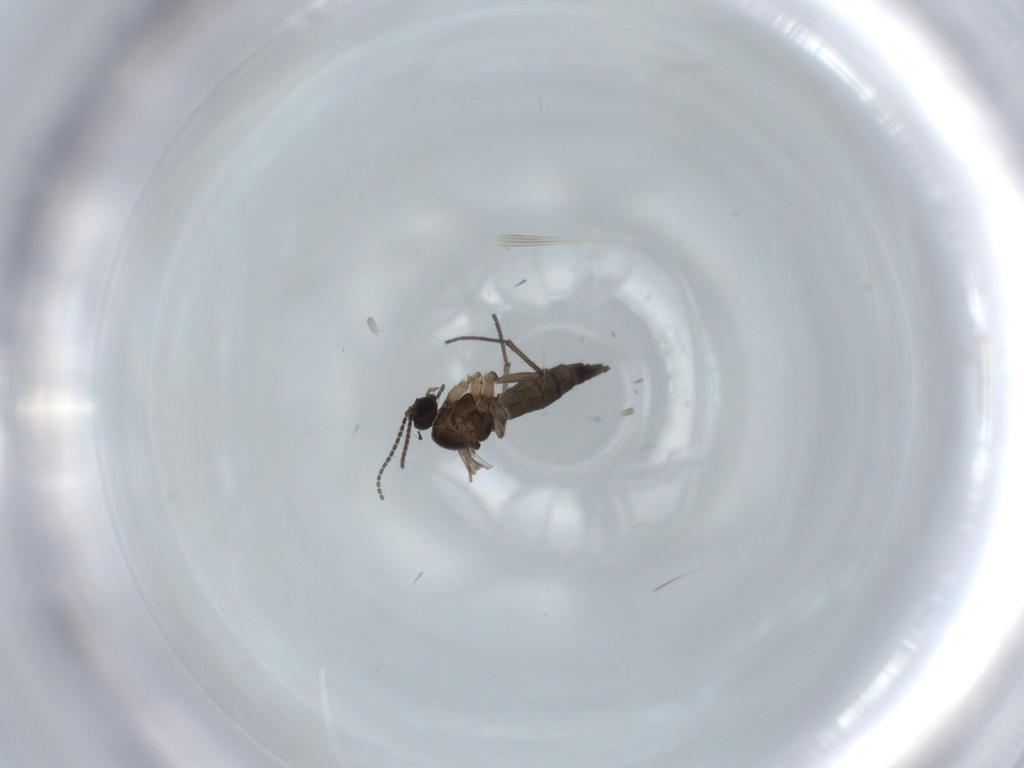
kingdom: Animalia
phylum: Arthropoda
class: Insecta
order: Diptera
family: Sciaridae
